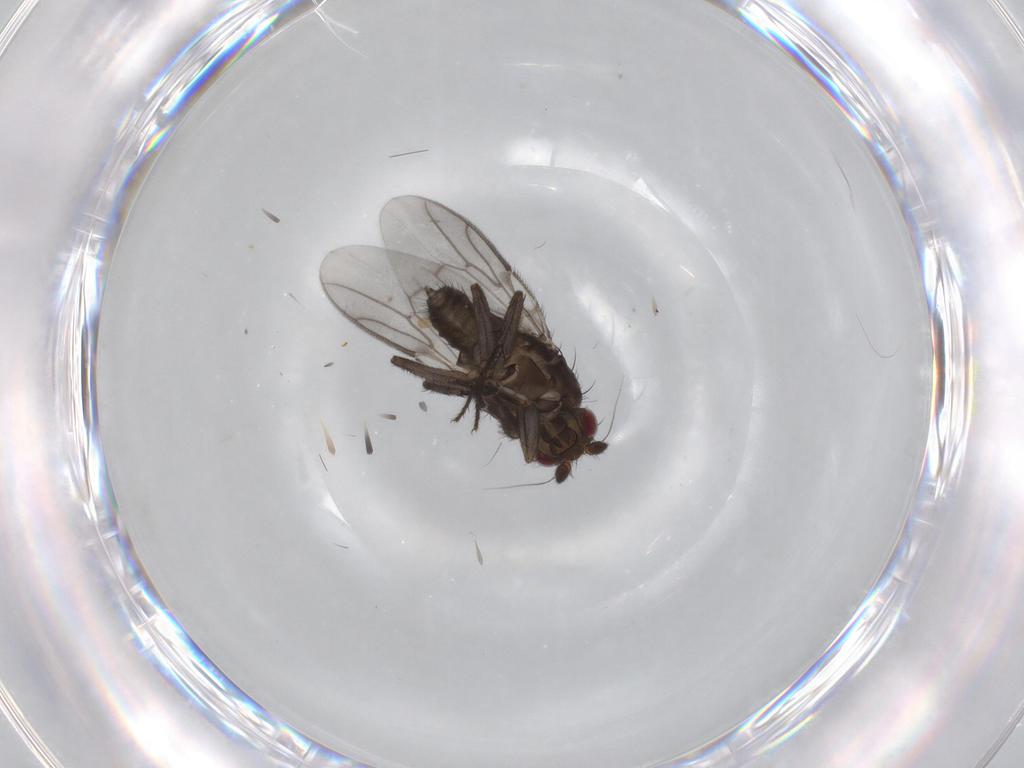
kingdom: Animalia
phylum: Arthropoda
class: Insecta
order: Diptera
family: Sphaeroceridae
